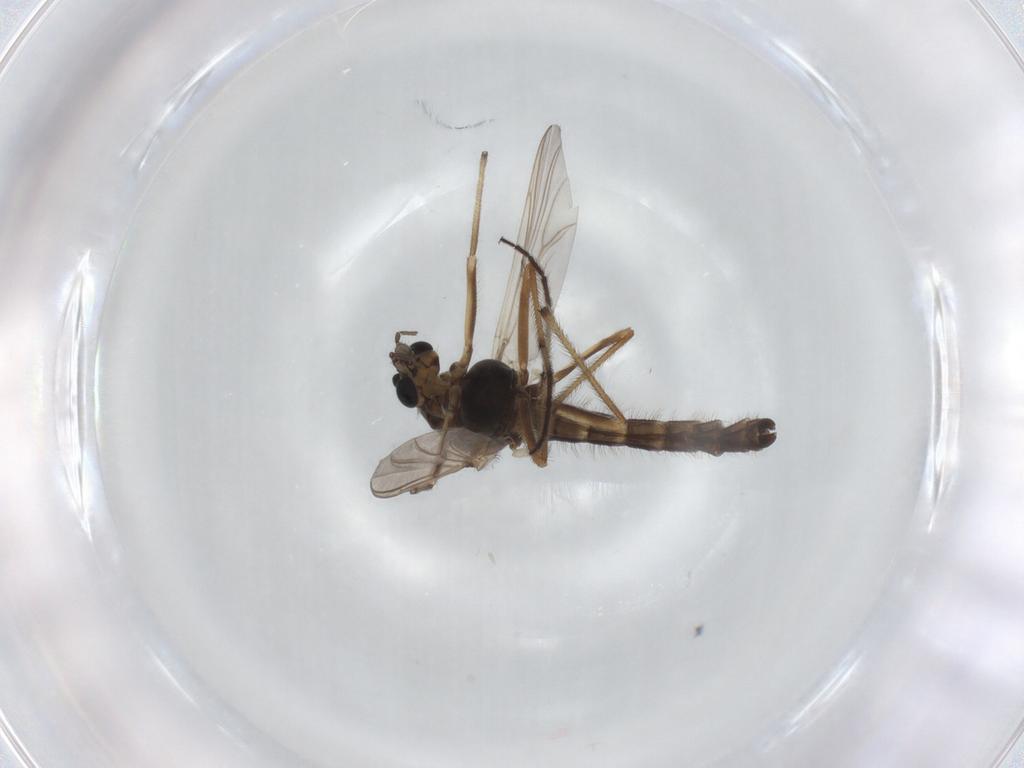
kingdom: Animalia
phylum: Arthropoda
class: Insecta
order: Diptera
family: Chironomidae
